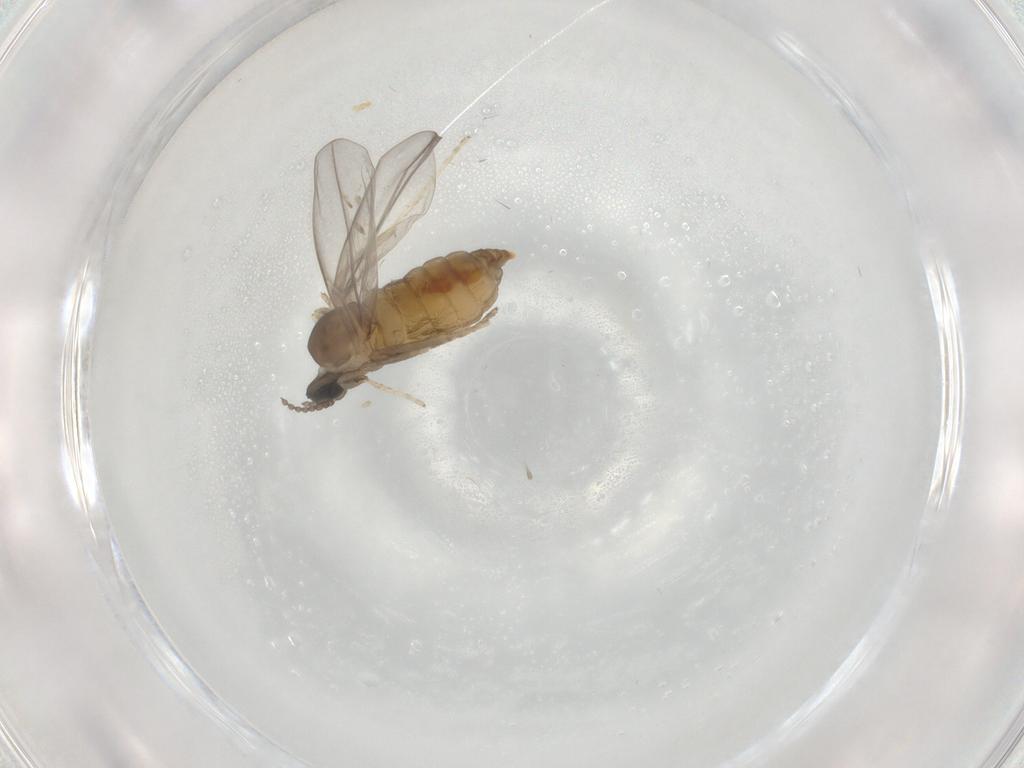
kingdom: Animalia
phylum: Arthropoda
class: Insecta
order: Diptera
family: Cecidomyiidae
